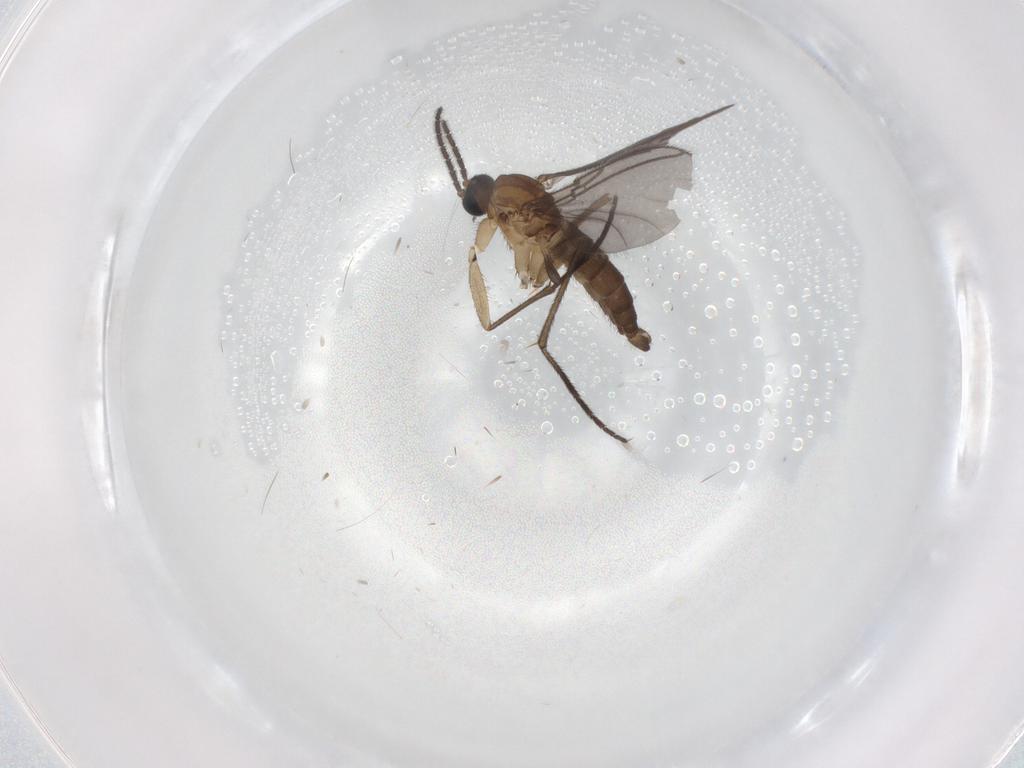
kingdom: Animalia
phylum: Arthropoda
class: Insecta
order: Diptera
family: Sciaridae
